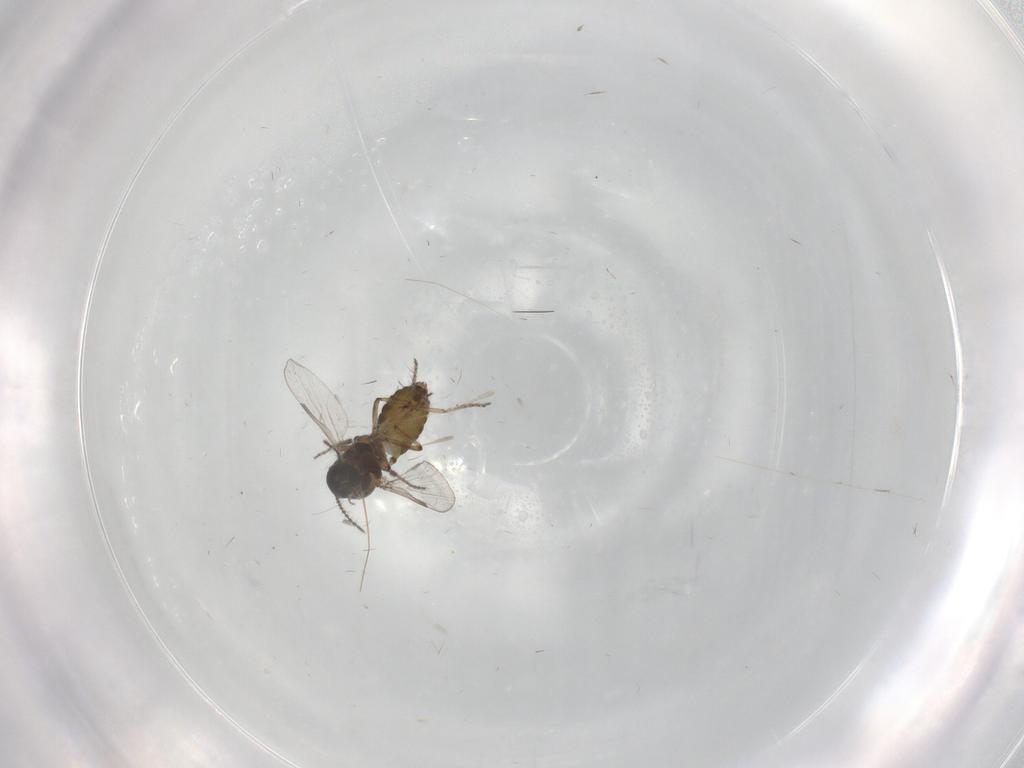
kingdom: Animalia
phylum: Arthropoda
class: Insecta
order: Diptera
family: Ceratopogonidae
